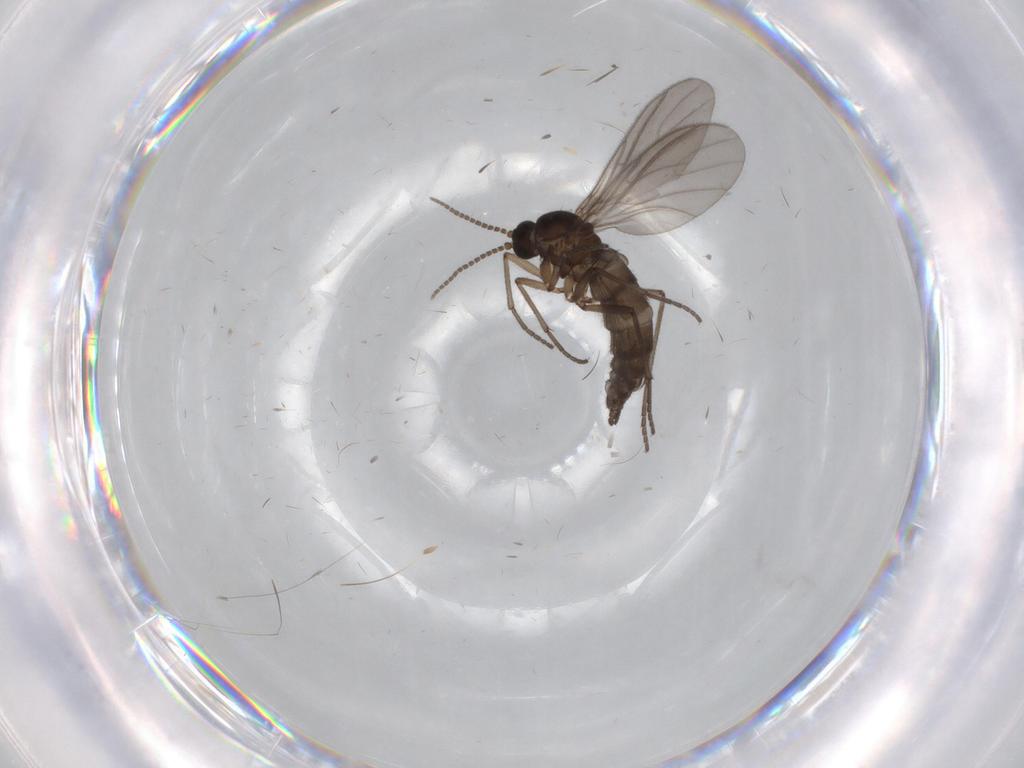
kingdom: Animalia
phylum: Arthropoda
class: Insecta
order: Diptera
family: Sciaridae
